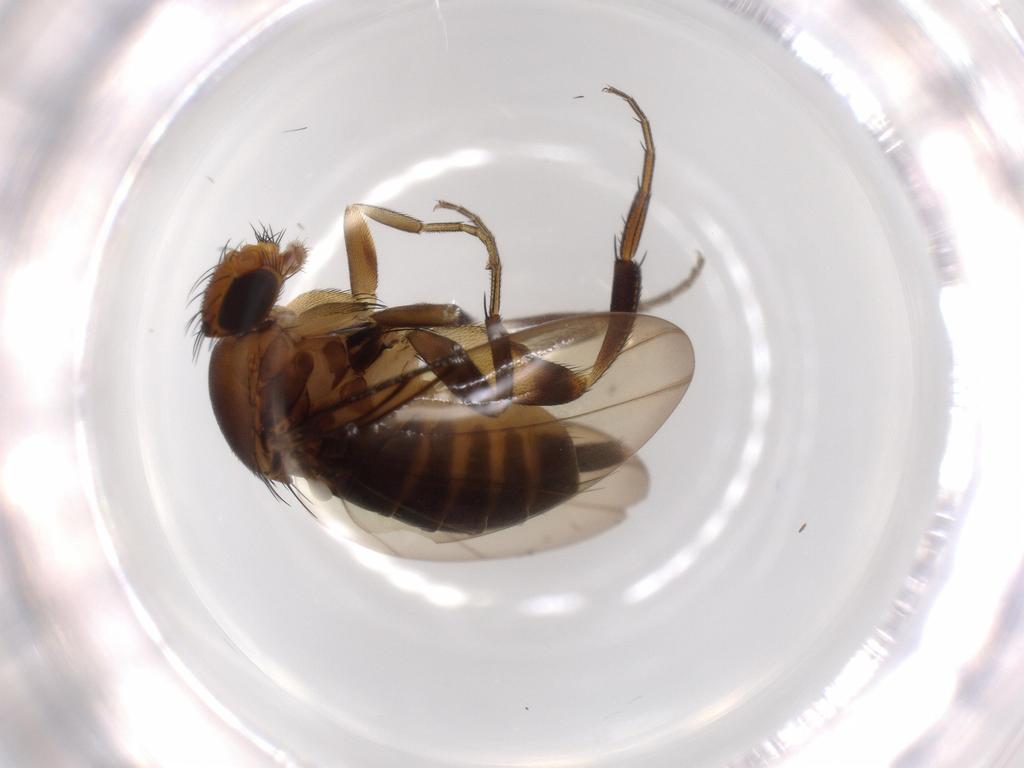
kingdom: Animalia
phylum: Arthropoda
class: Insecta
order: Diptera
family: Phoridae
